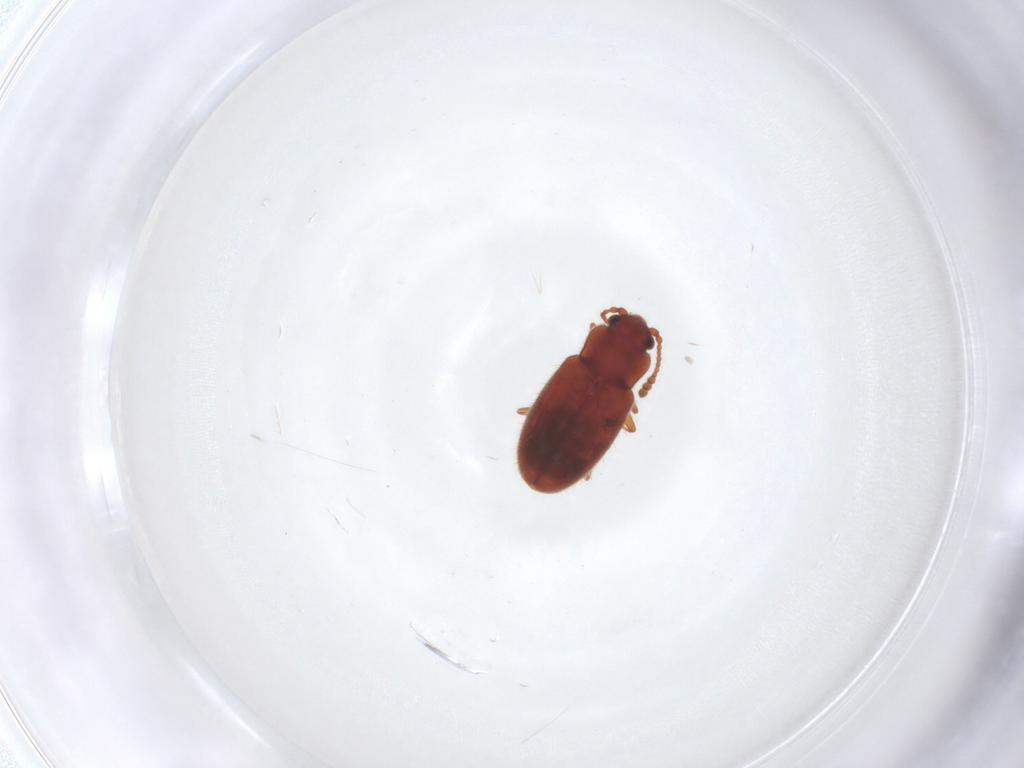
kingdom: Animalia
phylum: Arthropoda
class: Insecta
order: Coleoptera
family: Cryptophagidae
